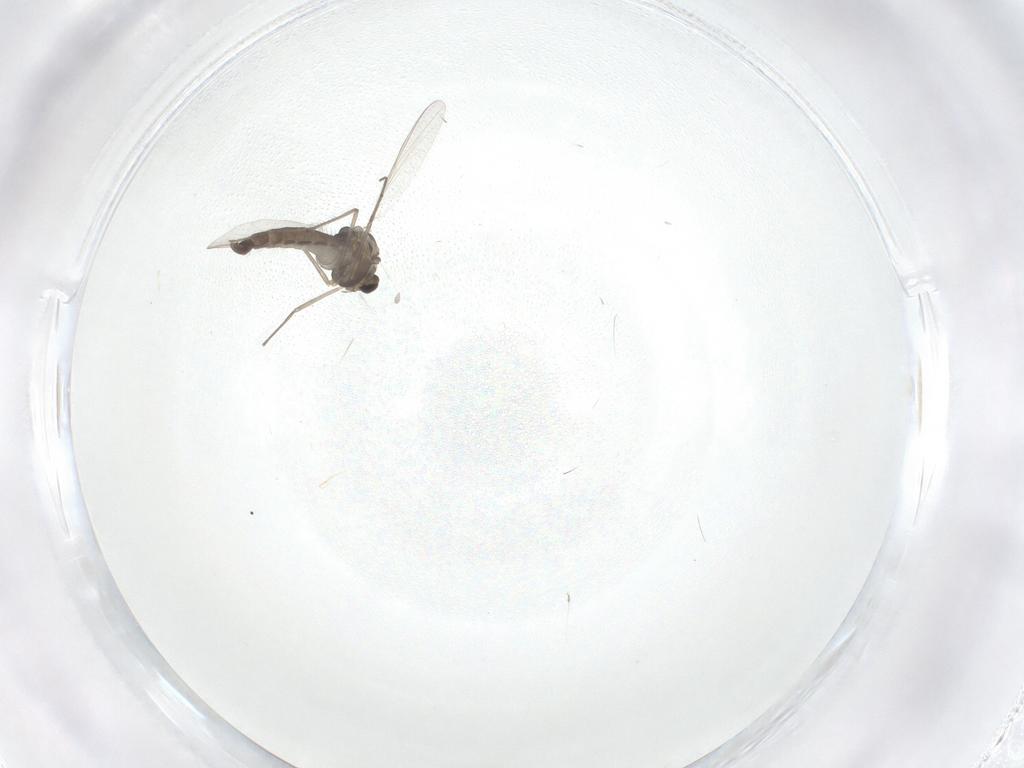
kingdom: Animalia
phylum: Arthropoda
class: Insecta
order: Diptera
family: Chironomidae
